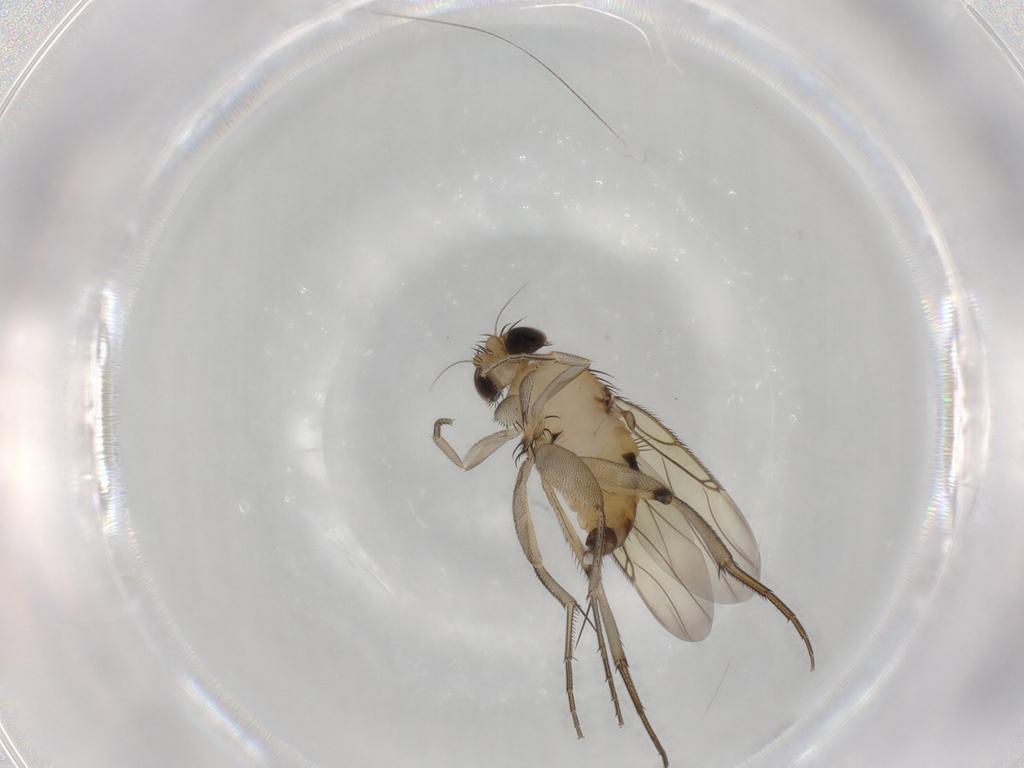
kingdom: Animalia
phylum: Arthropoda
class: Insecta
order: Diptera
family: Phoridae
